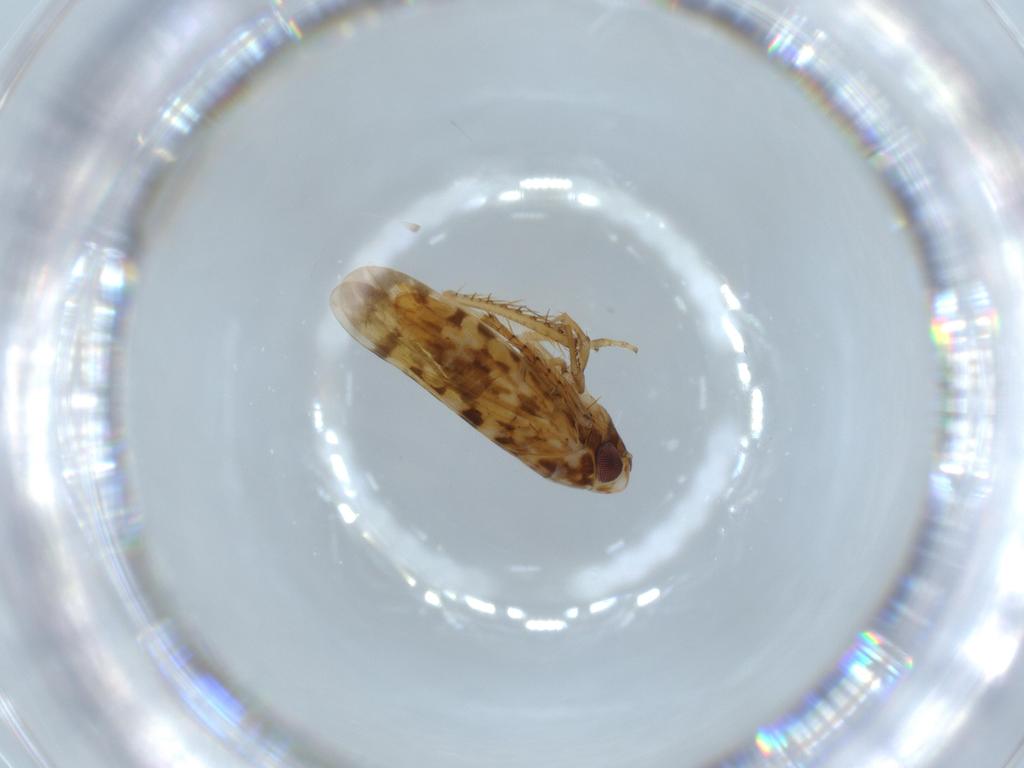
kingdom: Animalia
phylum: Arthropoda
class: Insecta
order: Hemiptera
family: Cicadellidae
